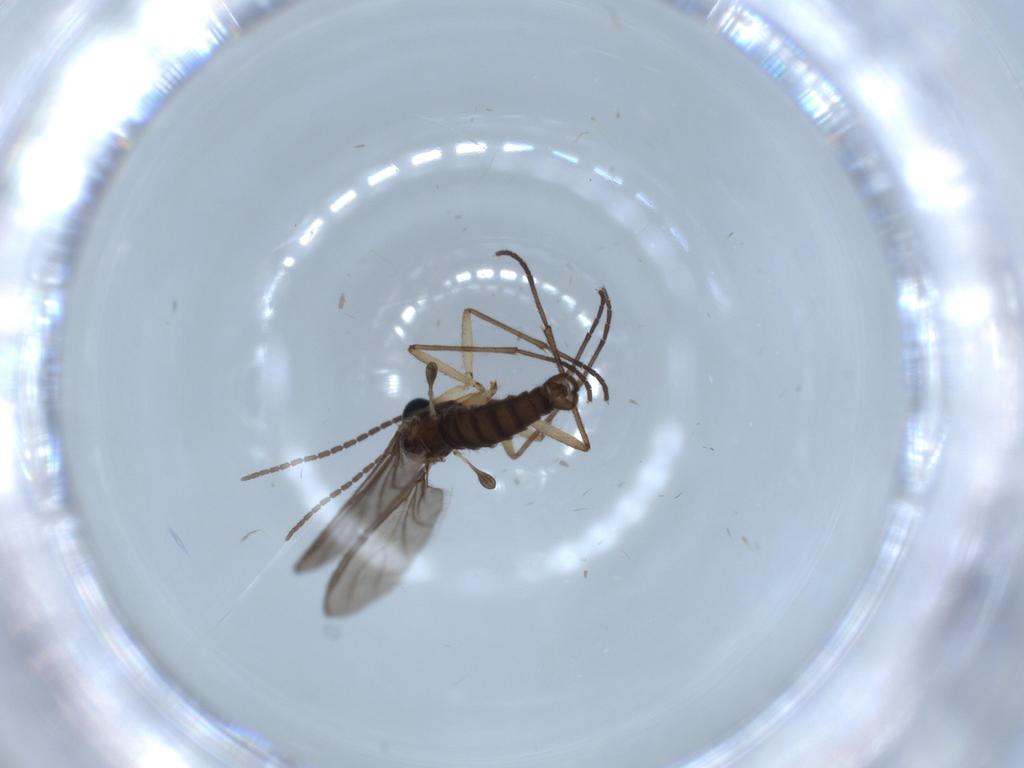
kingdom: Animalia
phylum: Arthropoda
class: Insecta
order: Diptera
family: Sciaridae
